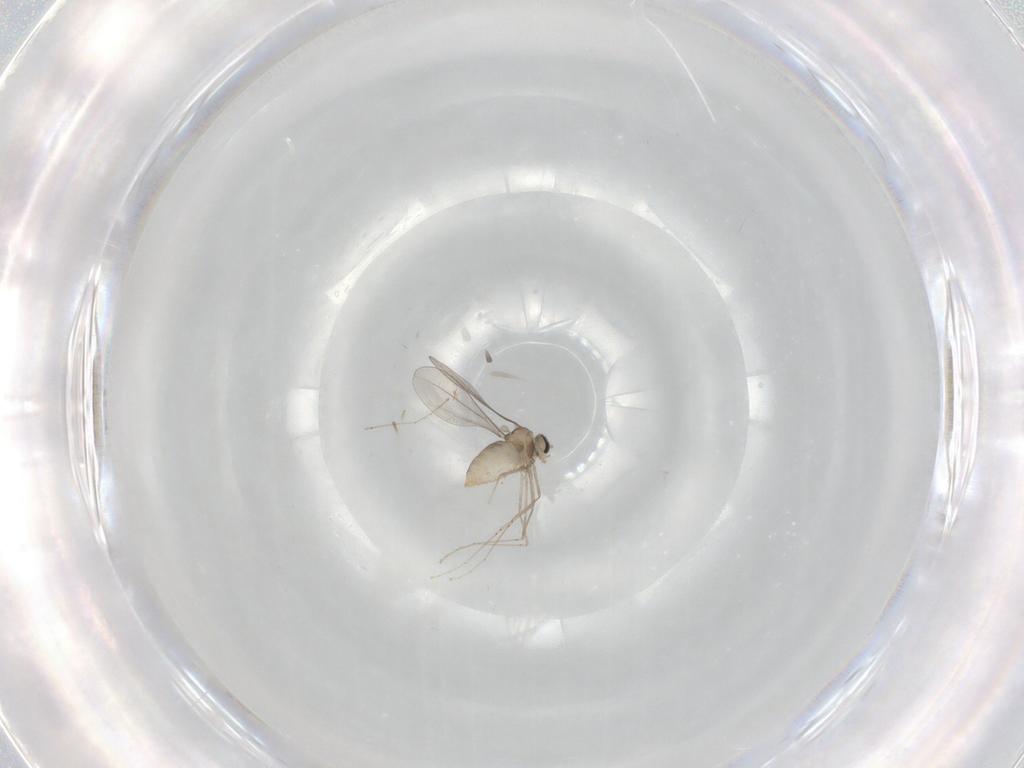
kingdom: Animalia
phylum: Arthropoda
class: Insecta
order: Diptera
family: Cecidomyiidae
